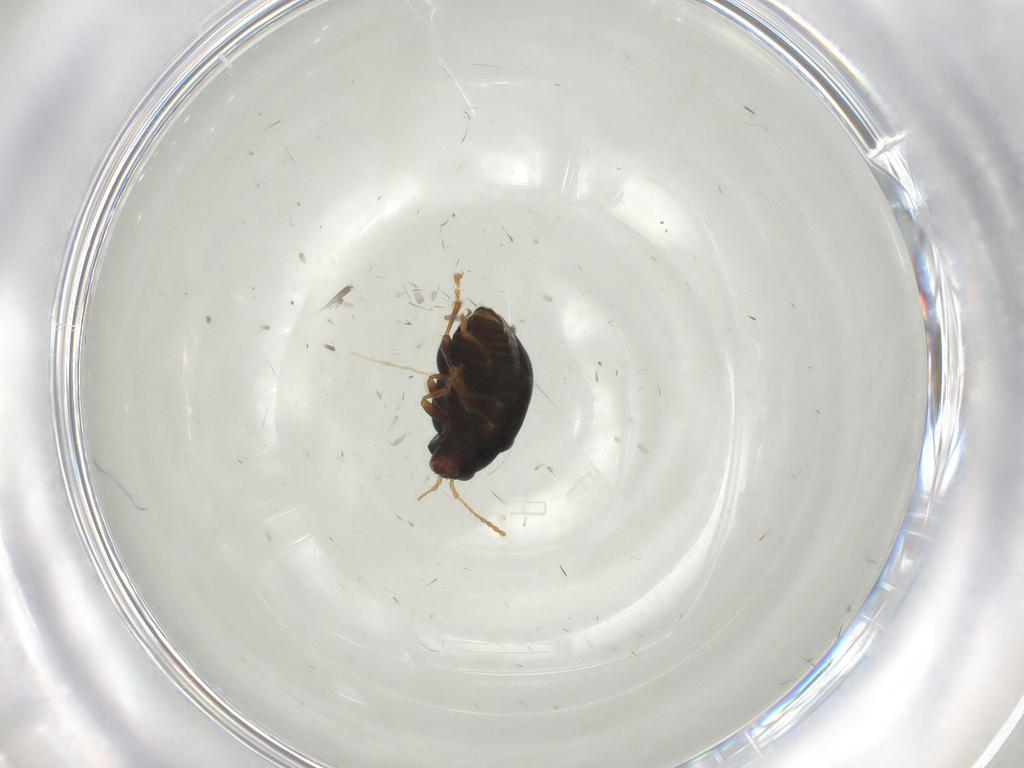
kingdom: Animalia
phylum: Arthropoda
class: Insecta
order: Coleoptera
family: Chrysomelidae
